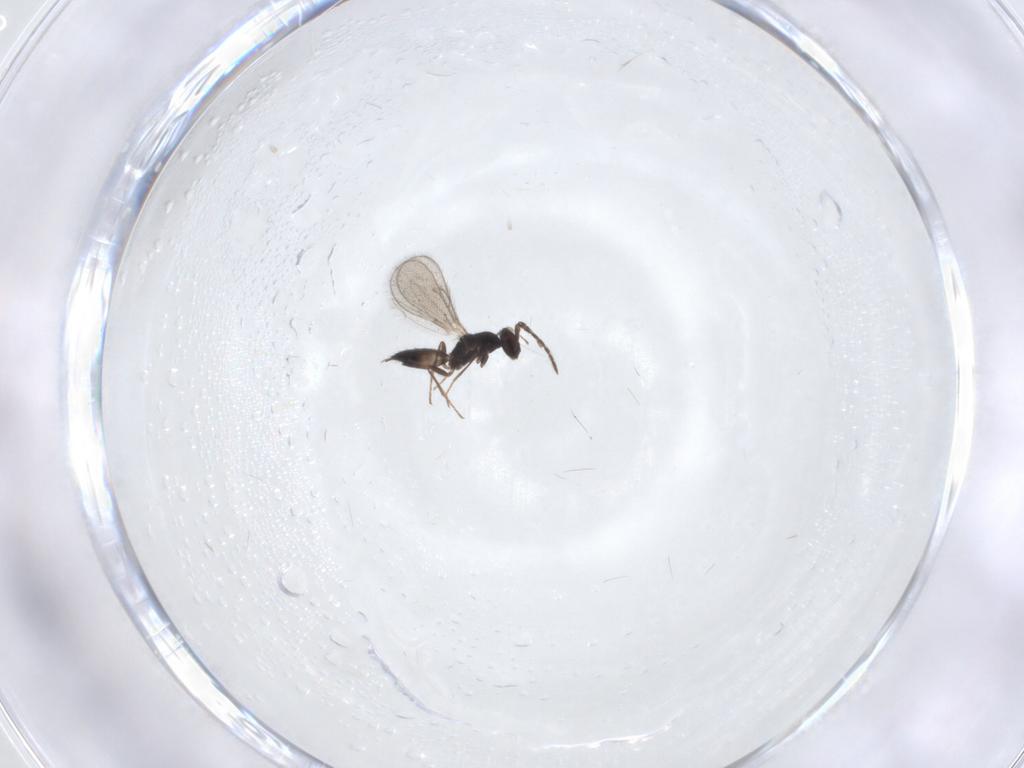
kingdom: Animalia
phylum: Arthropoda
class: Insecta
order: Hymenoptera
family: Eulophidae
